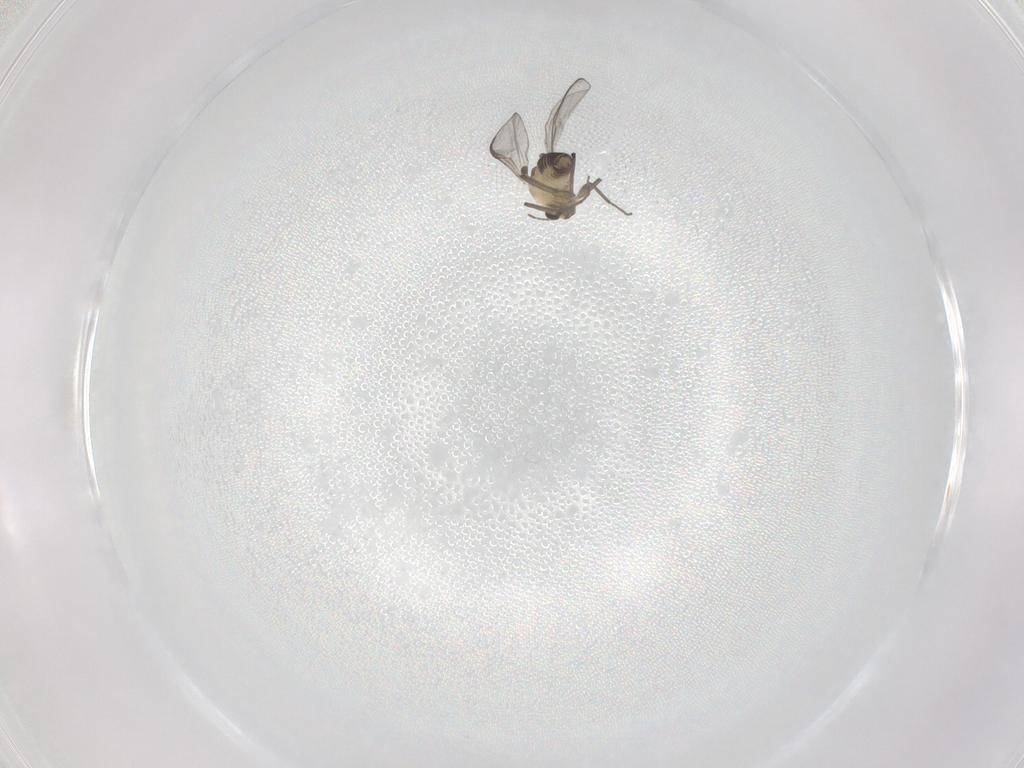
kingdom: Animalia
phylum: Arthropoda
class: Insecta
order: Diptera
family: Chironomidae
